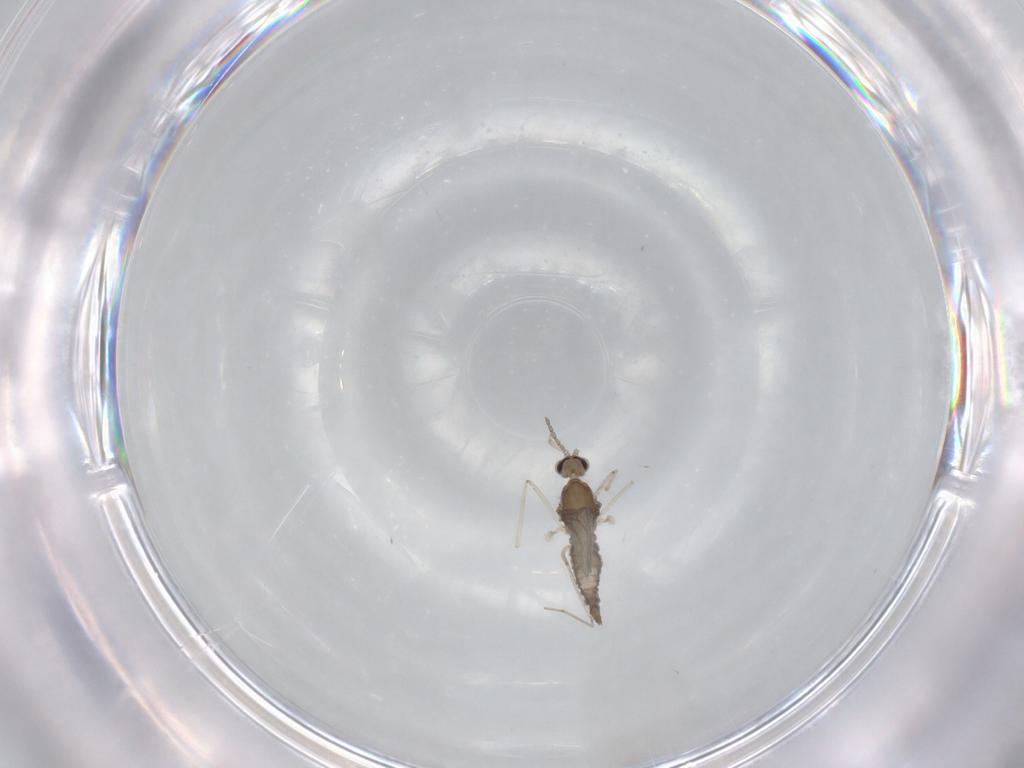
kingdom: Animalia
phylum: Arthropoda
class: Insecta
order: Diptera
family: Cecidomyiidae
